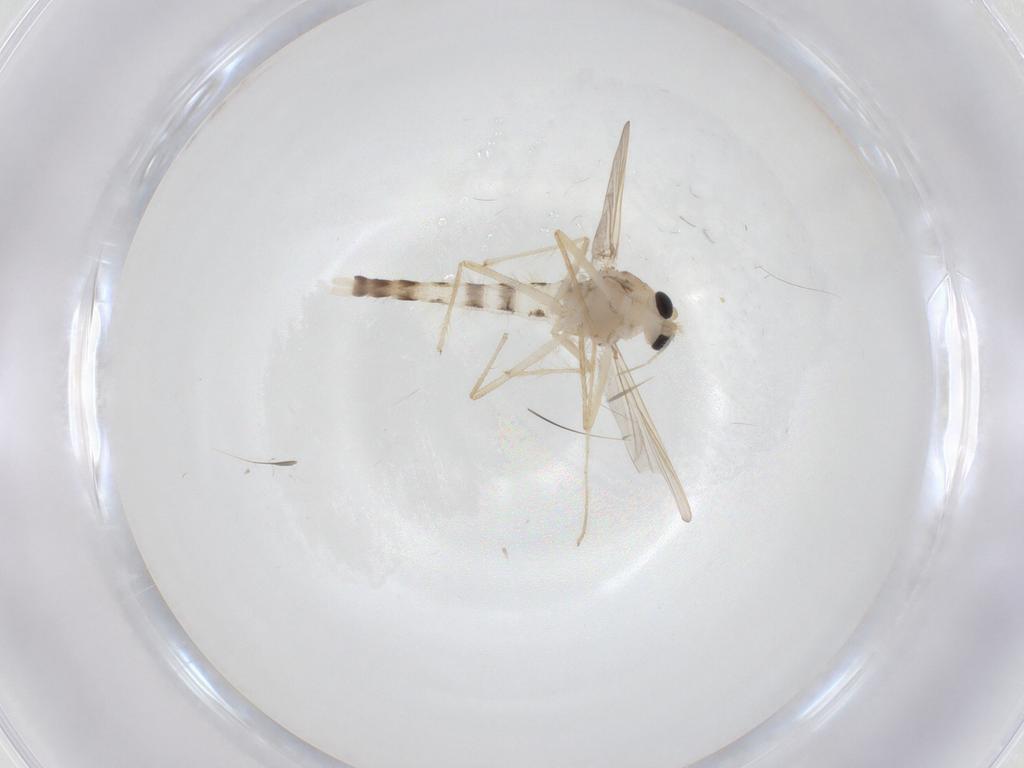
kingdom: Animalia
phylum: Arthropoda
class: Insecta
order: Diptera
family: Chironomidae
